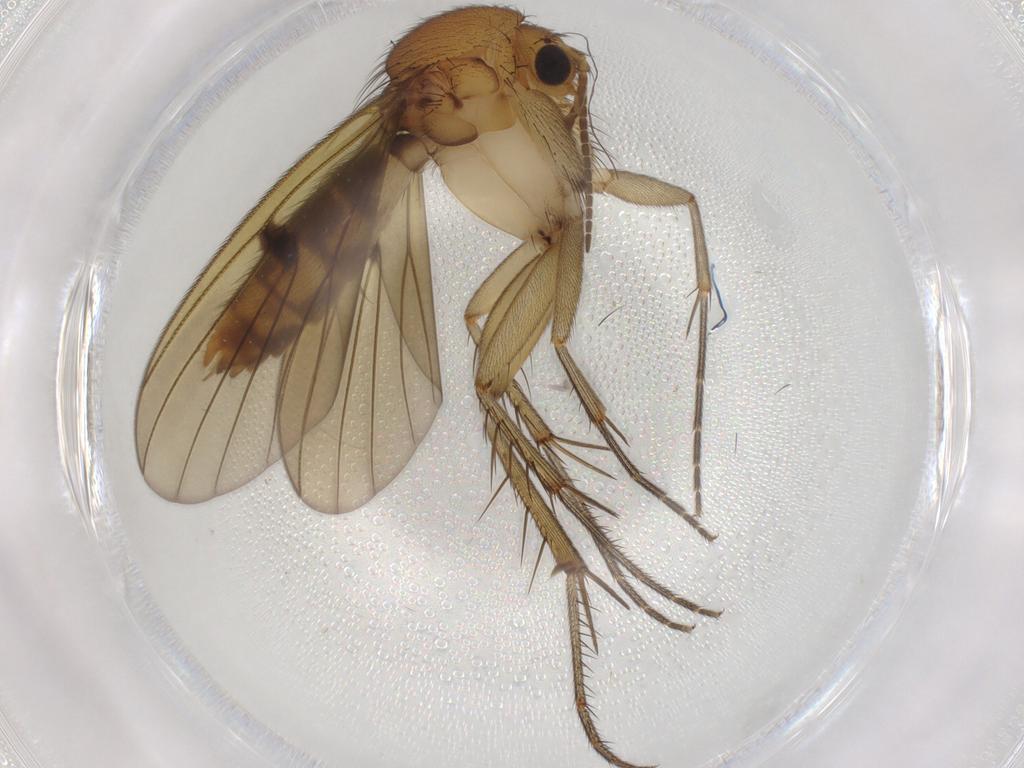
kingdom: Animalia
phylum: Arthropoda
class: Insecta
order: Diptera
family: Mycetophilidae
